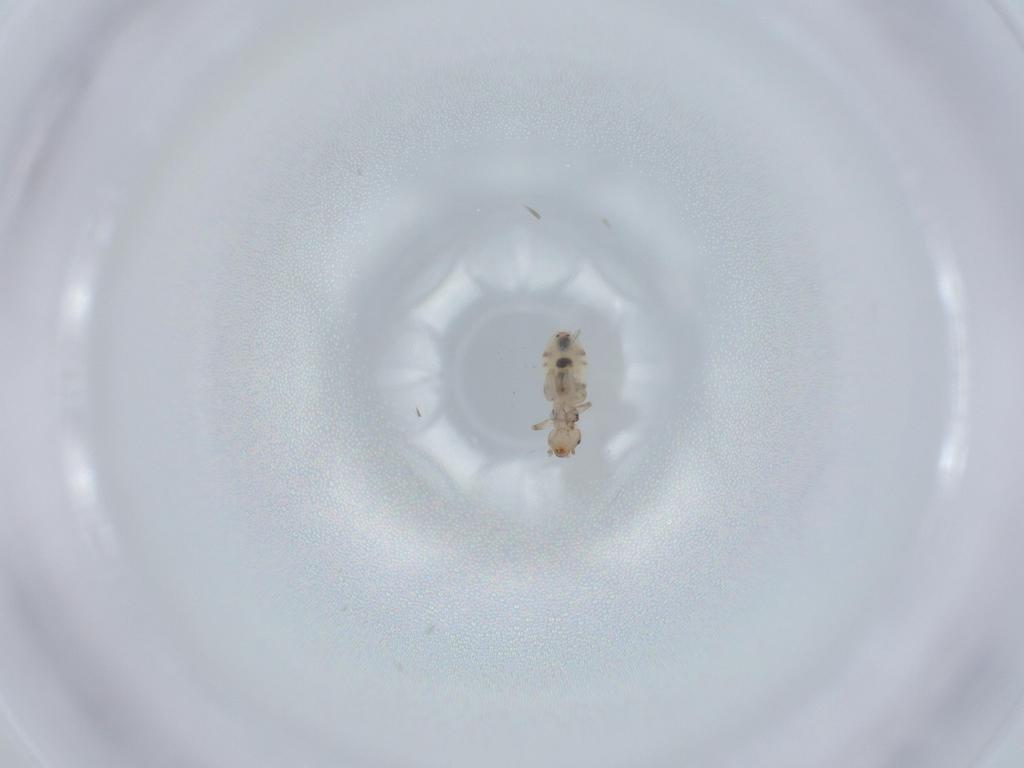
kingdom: Animalia
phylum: Arthropoda
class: Insecta
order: Psocodea
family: Liposcelididae
